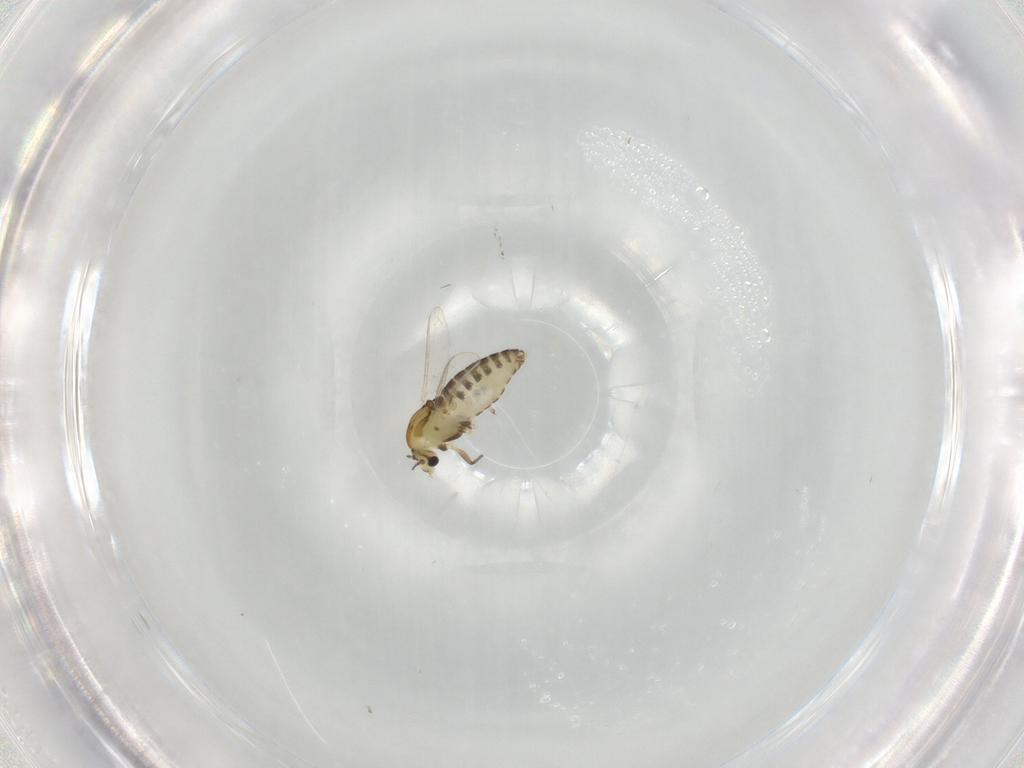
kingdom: Animalia
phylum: Arthropoda
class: Insecta
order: Diptera
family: Chironomidae
